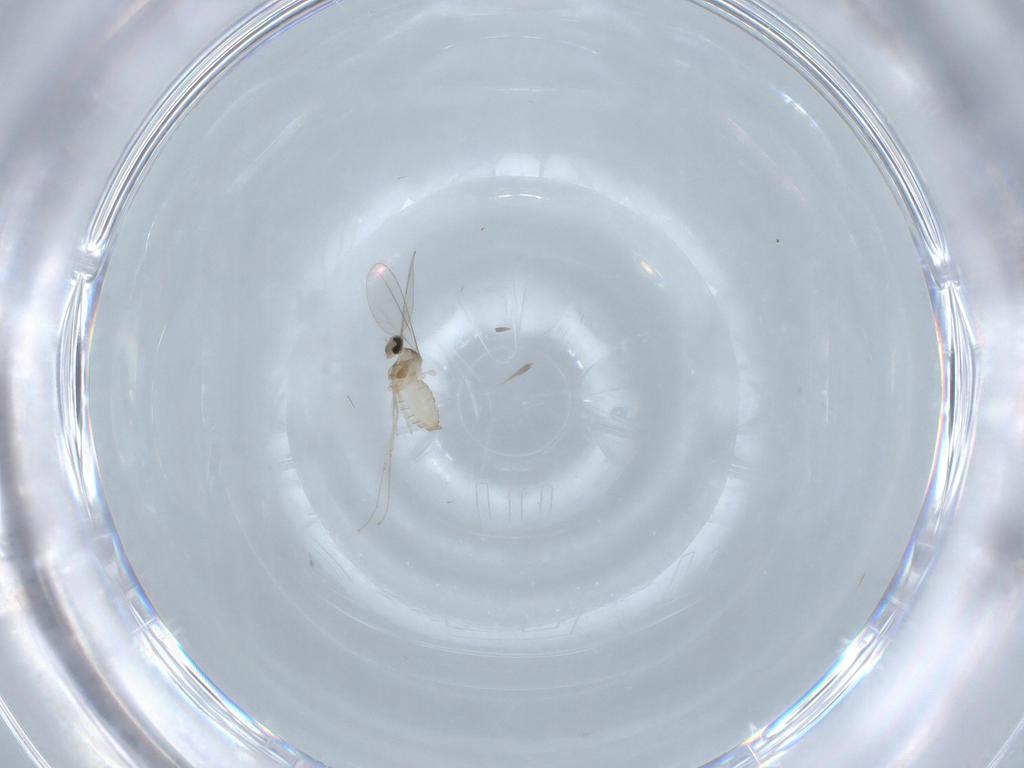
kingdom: Animalia
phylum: Arthropoda
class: Insecta
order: Diptera
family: Cecidomyiidae
